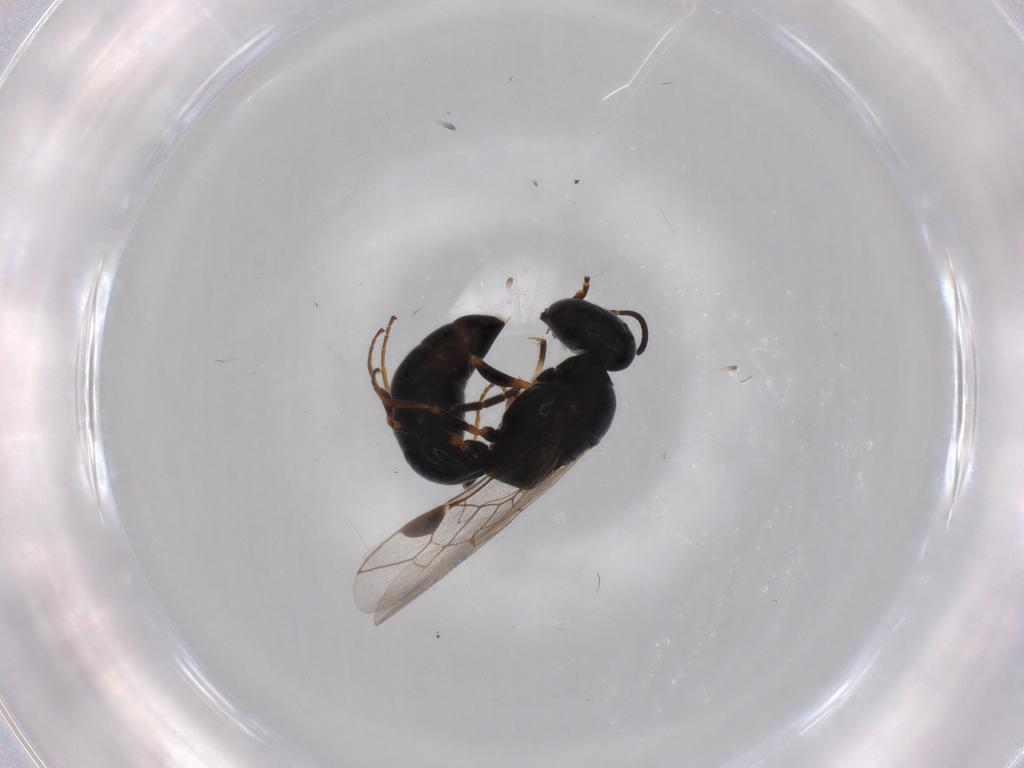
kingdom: Animalia
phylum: Arthropoda
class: Insecta
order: Hymenoptera
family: Crabronidae
